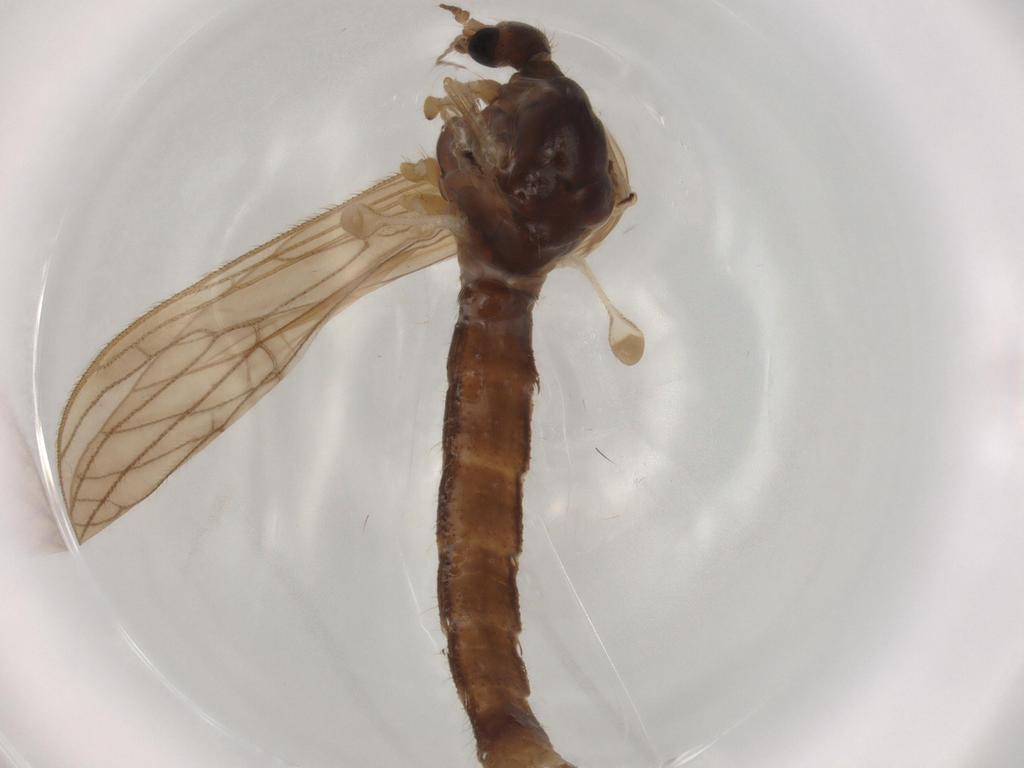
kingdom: Animalia
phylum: Arthropoda
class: Insecta
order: Diptera
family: Limoniidae
